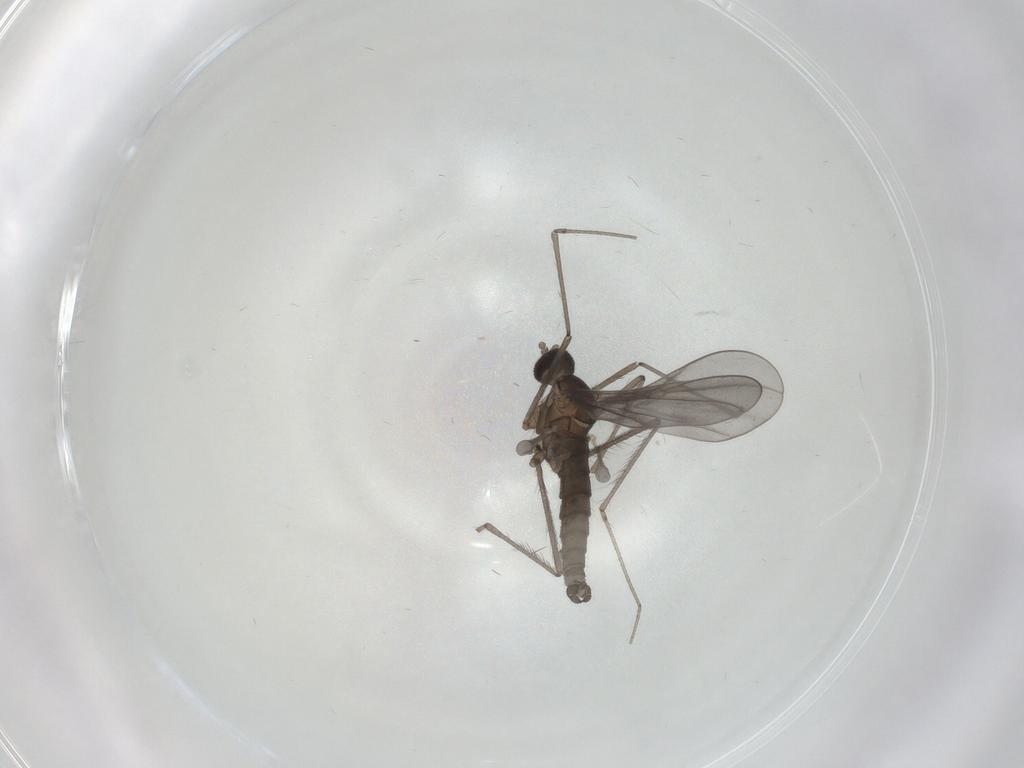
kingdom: Animalia
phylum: Arthropoda
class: Insecta
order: Diptera
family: Cecidomyiidae
